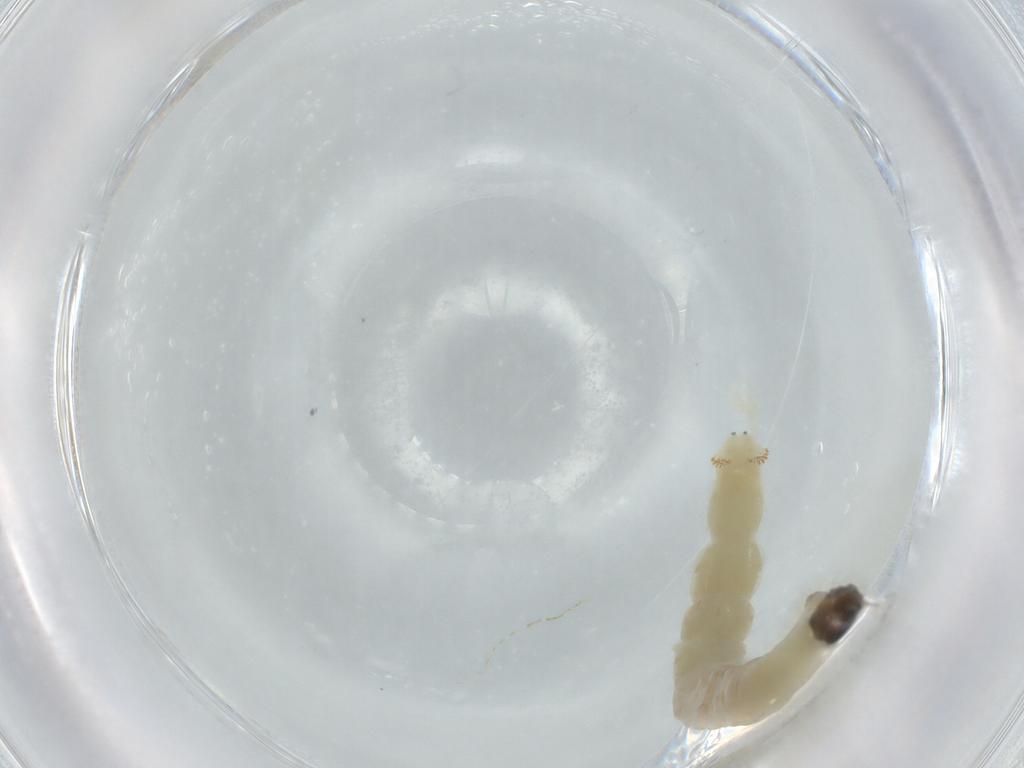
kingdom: Animalia
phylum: Arthropoda
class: Insecta
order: Diptera
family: Chironomidae
